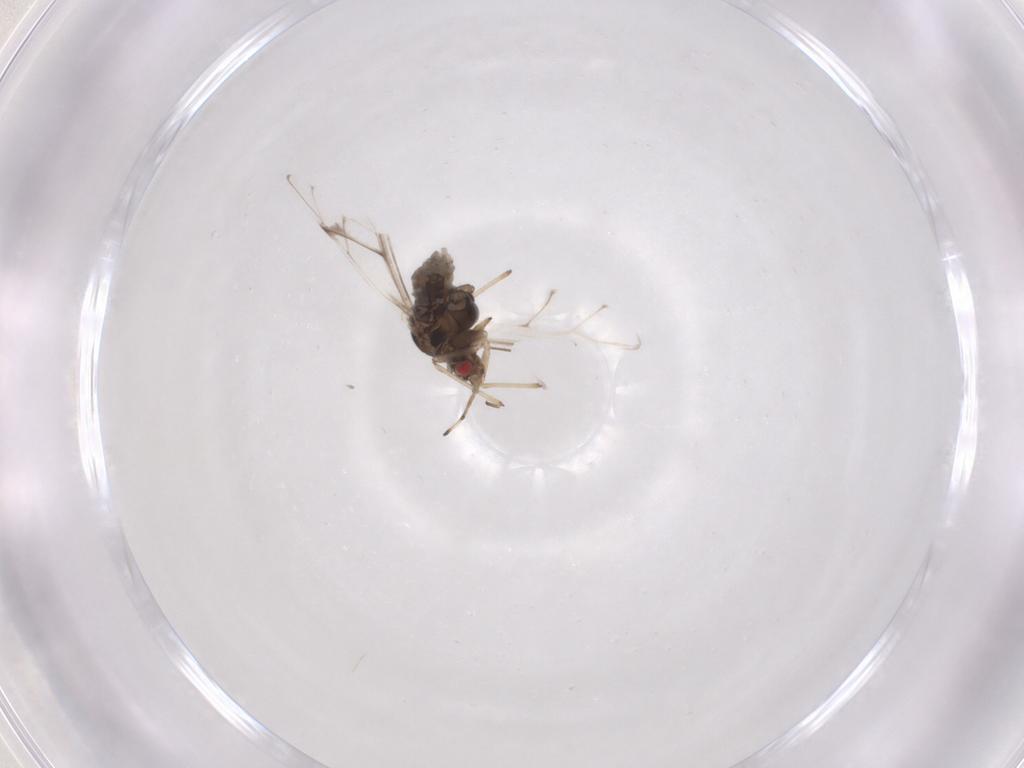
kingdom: Animalia
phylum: Arthropoda
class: Insecta
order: Hemiptera
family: Aphididae
